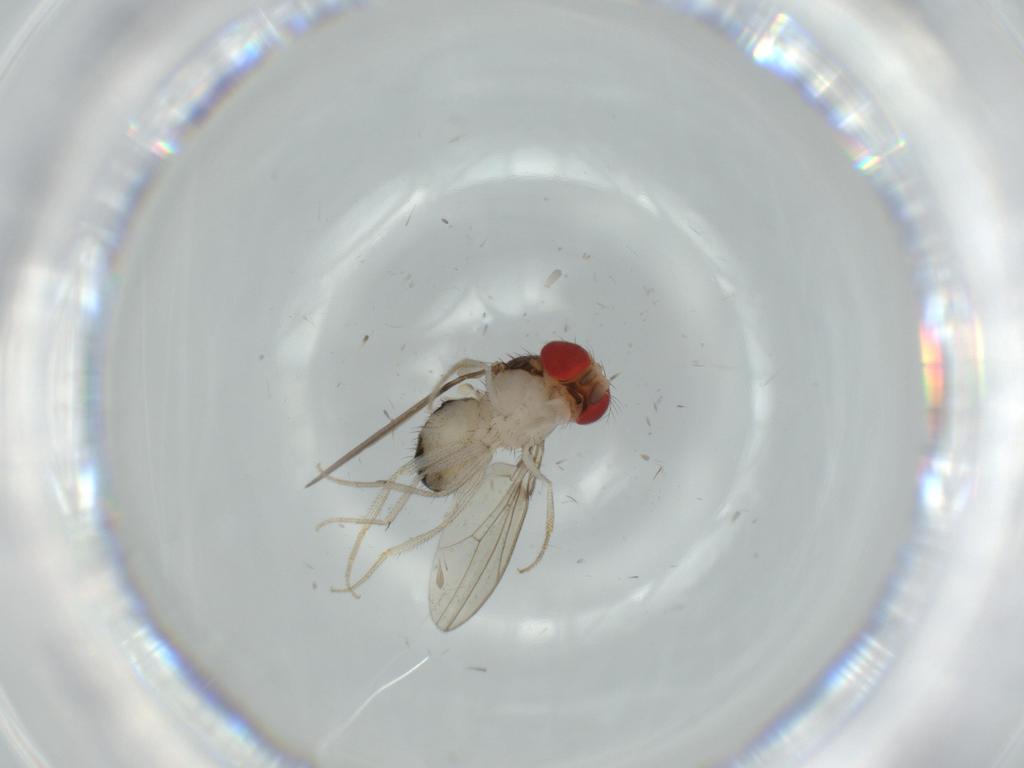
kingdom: Animalia
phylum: Arthropoda
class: Insecta
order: Diptera
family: Drosophilidae
